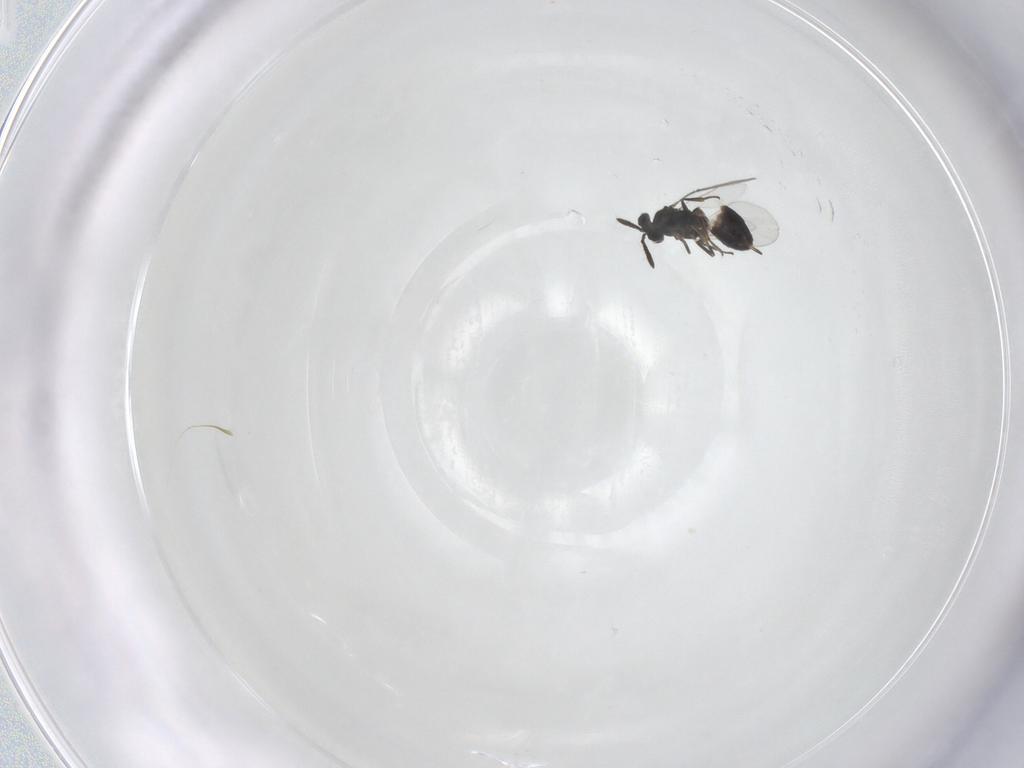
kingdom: Animalia
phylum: Arthropoda
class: Insecta
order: Hymenoptera
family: Encyrtidae
